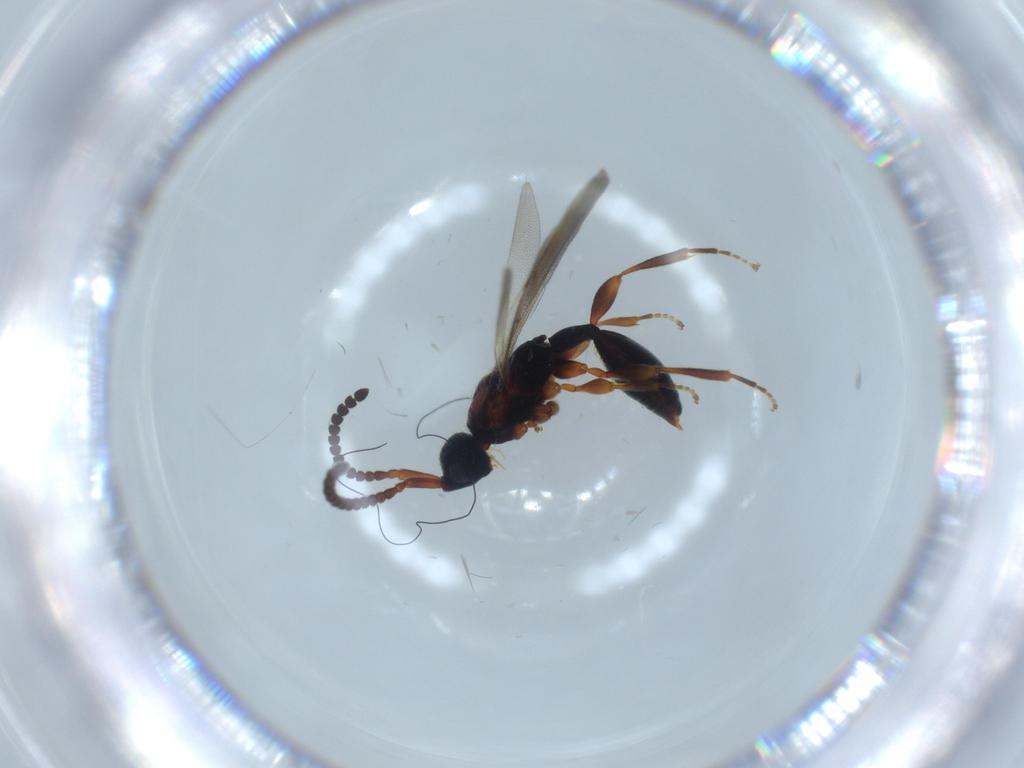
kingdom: Animalia
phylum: Arthropoda
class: Insecta
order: Hymenoptera
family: Diapriidae
